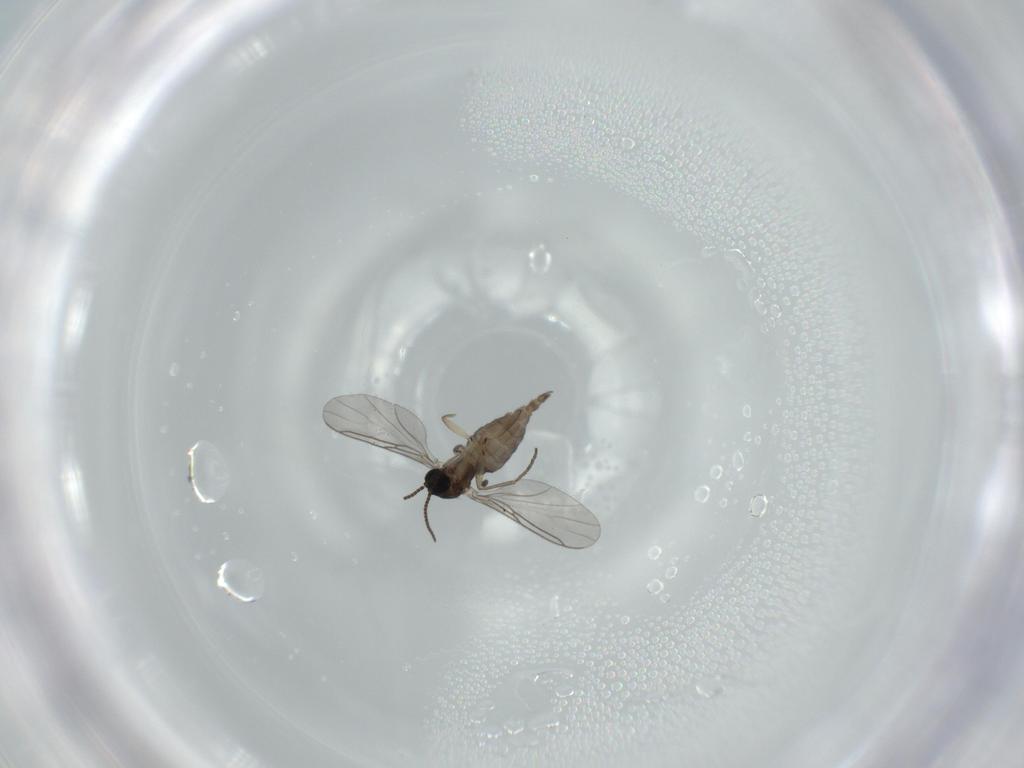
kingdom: Animalia
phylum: Arthropoda
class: Insecta
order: Diptera
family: Sciaridae
